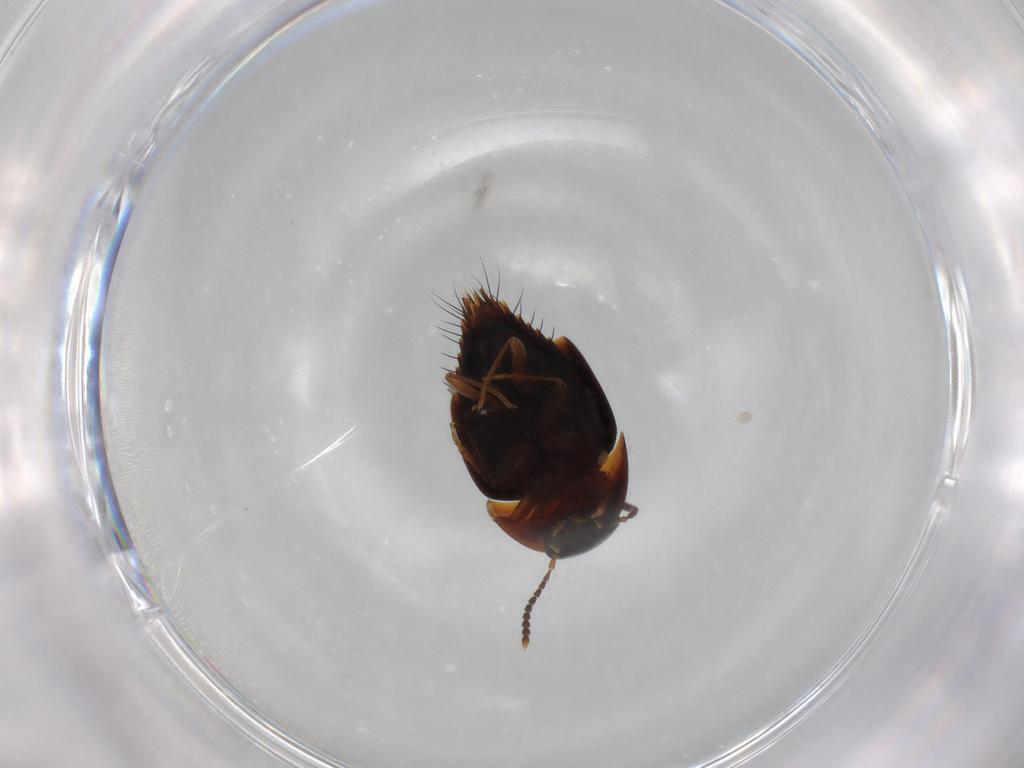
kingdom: Animalia
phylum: Arthropoda
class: Insecta
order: Coleoptera
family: Staphylinidae
